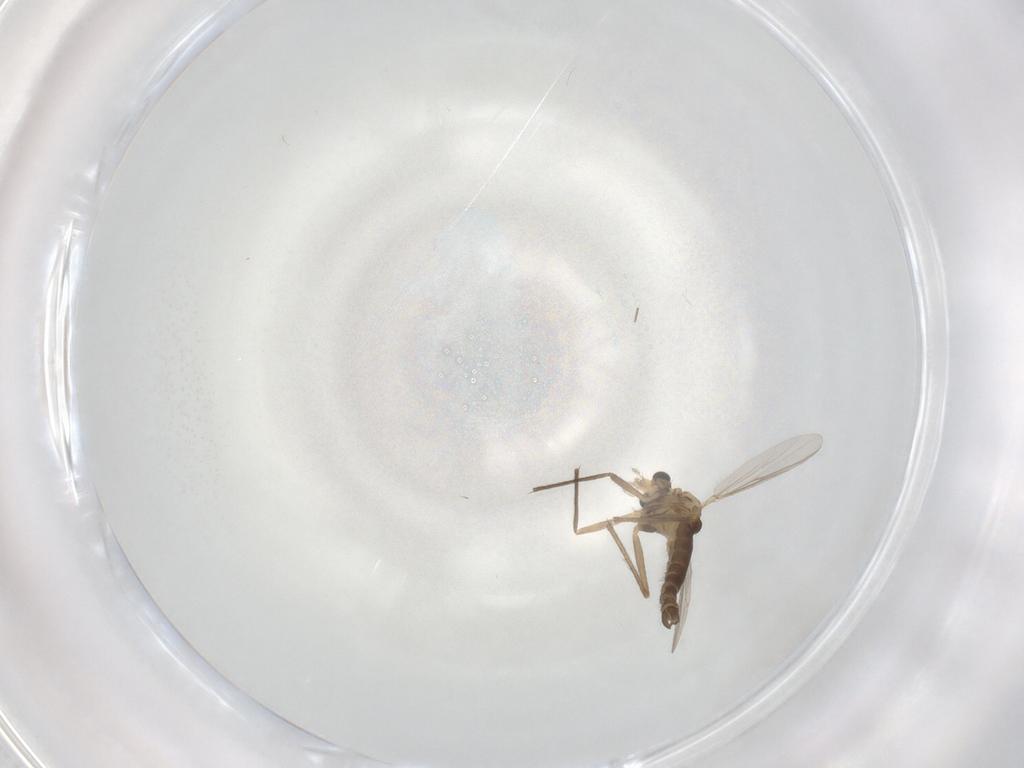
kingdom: Animalia
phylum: Arthropoda
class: Insecta
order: Diptera
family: Chironomidae
